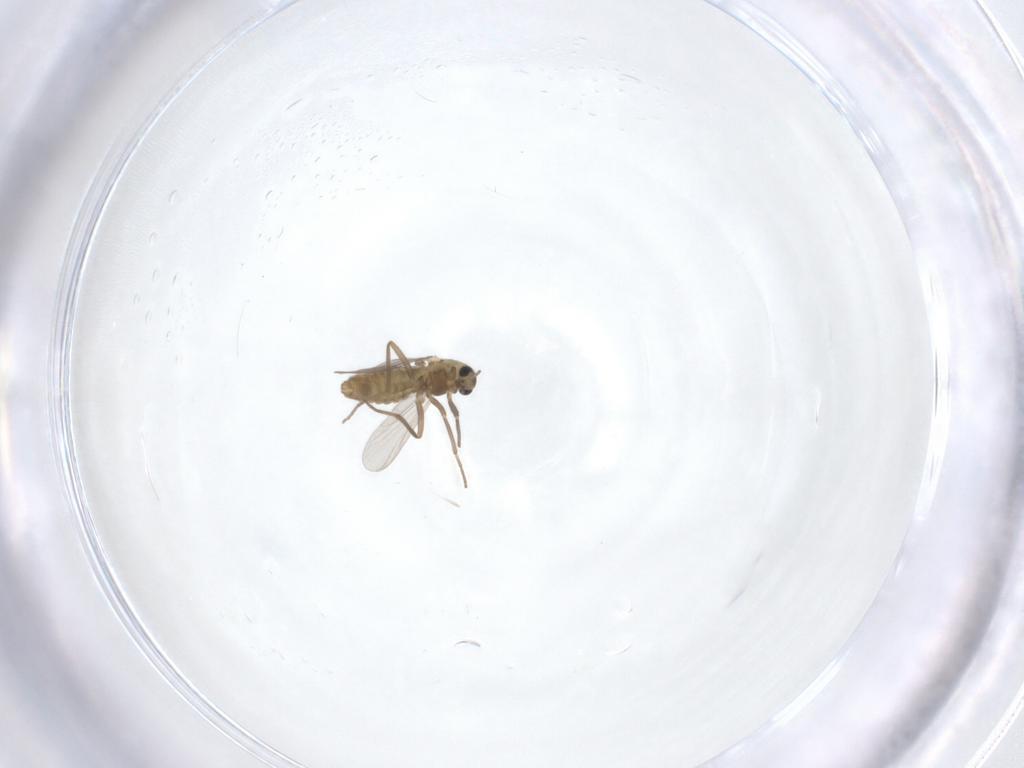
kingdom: Animalia
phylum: Arthropoda
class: Insecta
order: Diptera
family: Chironomidae
